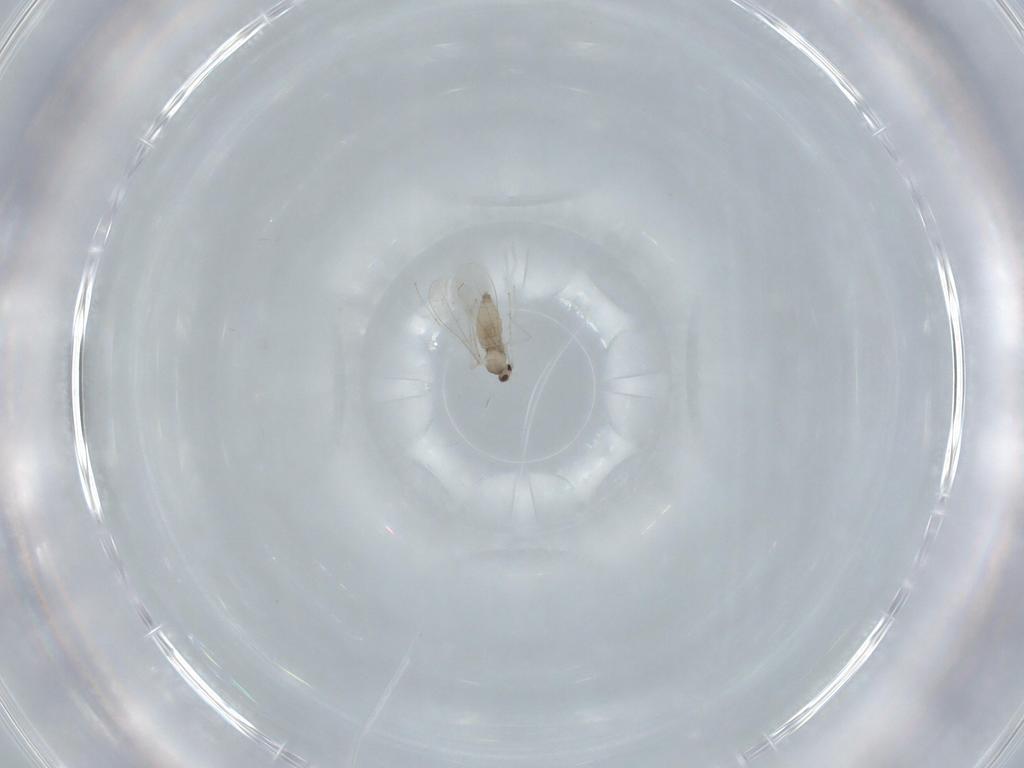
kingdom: Animalia
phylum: Arthropoda
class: Insecta
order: Diptera
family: Cecidomyiidae
